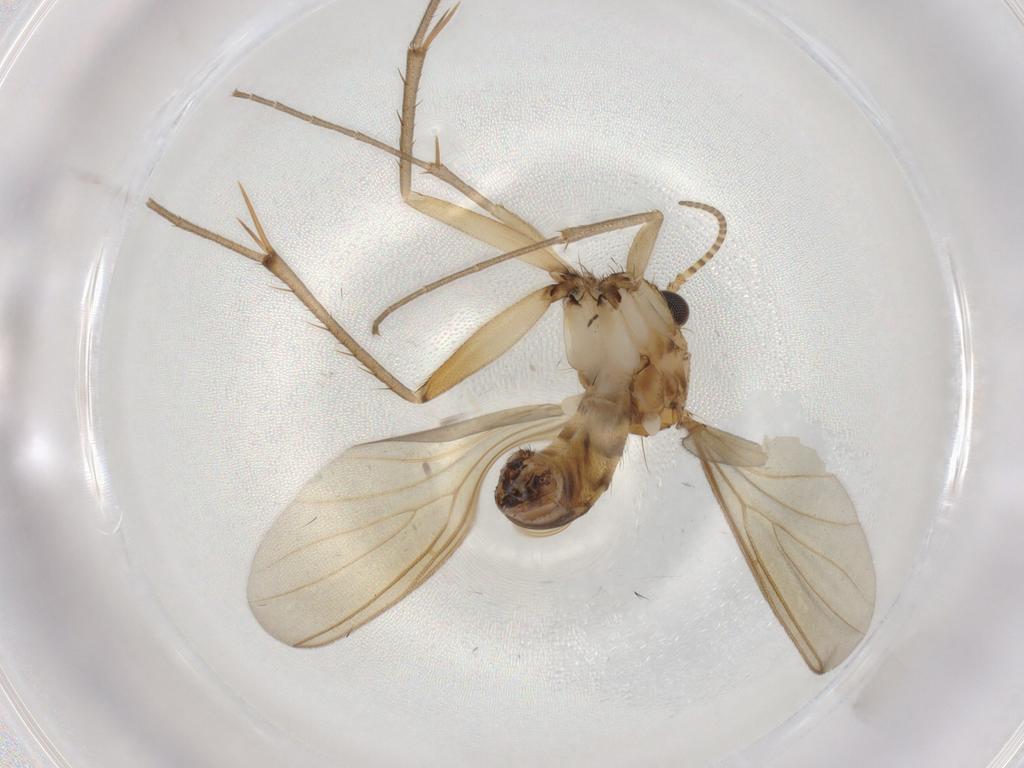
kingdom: Animalia
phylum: Arthropoda
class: Insecta
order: Diptera
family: Mycetophilidae
